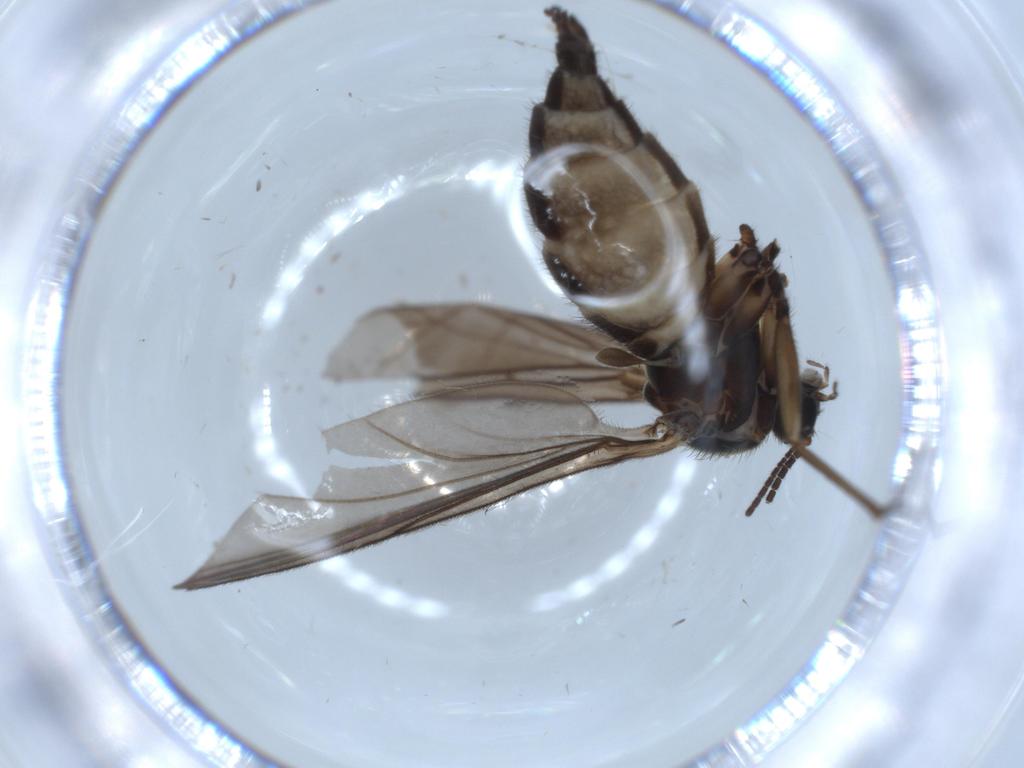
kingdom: Animalia
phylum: Arthropoda
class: Insecta
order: Diptera
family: Sciaridae
